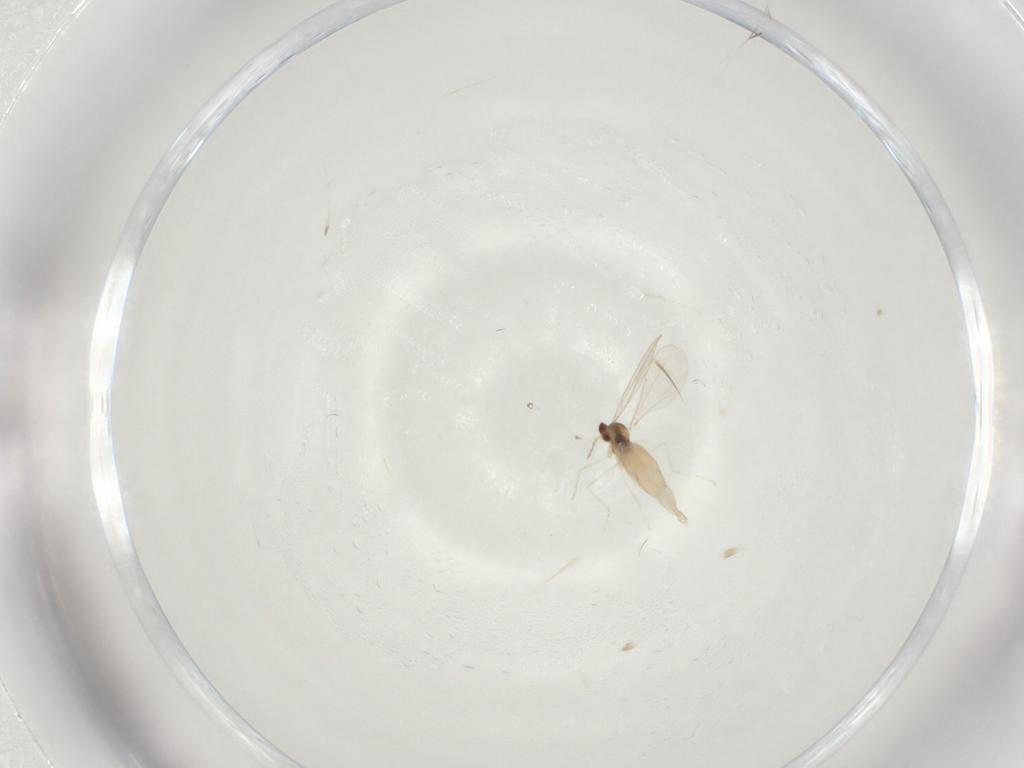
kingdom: Animalia
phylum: Arthropoda
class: Insecta
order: Diptera
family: Cecidomyiidae
